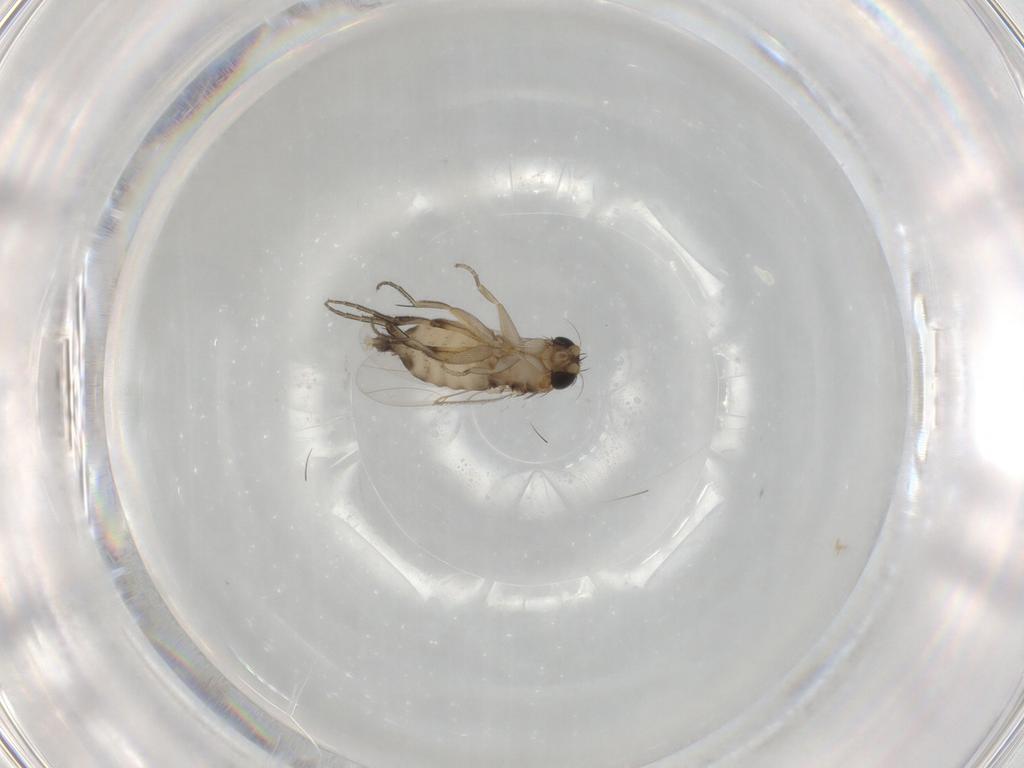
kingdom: Animalia
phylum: Arthropoda
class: Insecta
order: Diptera
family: Phoridae
